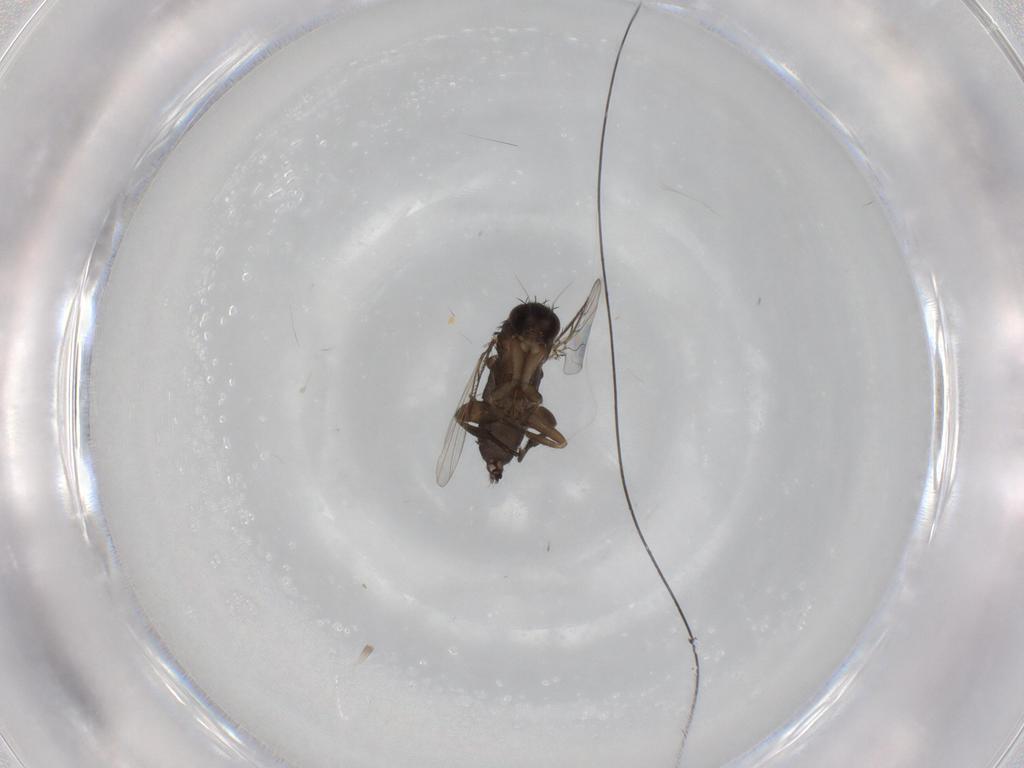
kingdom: Animalia
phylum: Arthropoda
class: Insecta
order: Diptera
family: Phoridae
